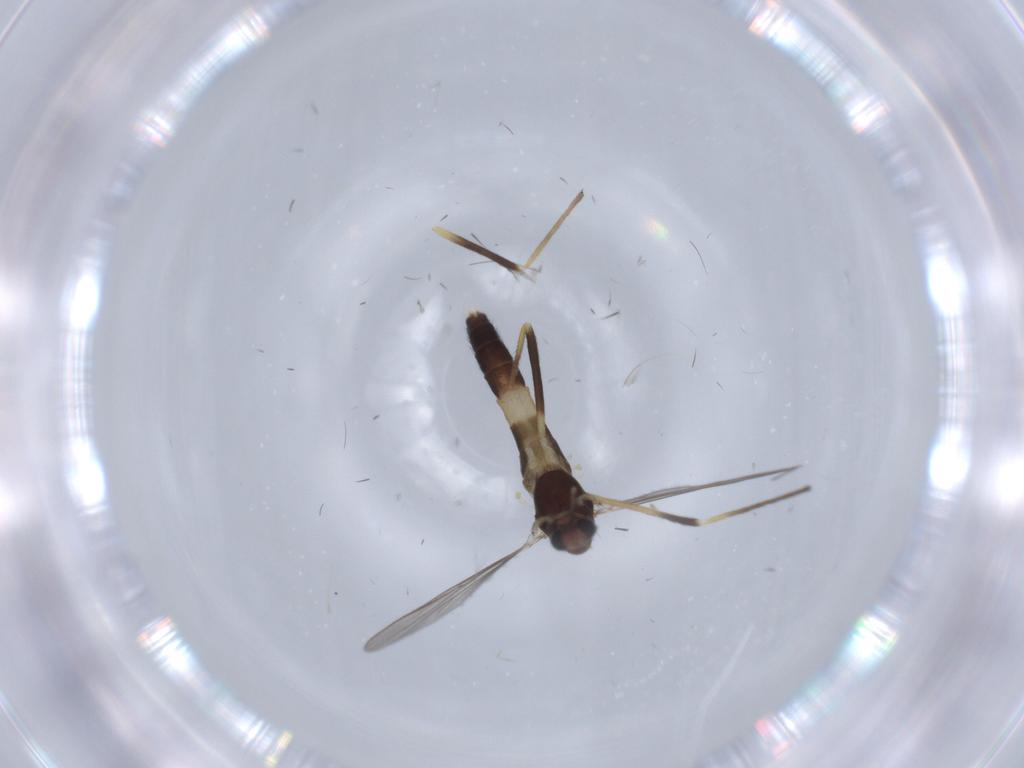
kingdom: Animalia
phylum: Arthropoda
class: Insecta
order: Diptera
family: Chironomidae
